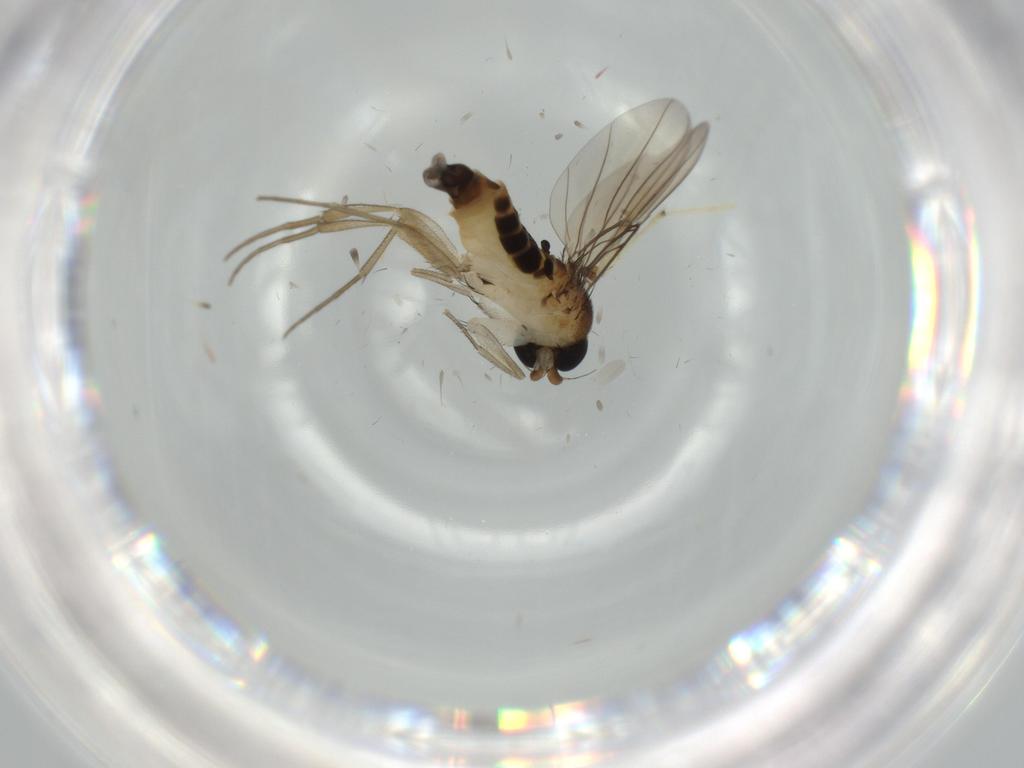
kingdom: Animalia
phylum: Arthropoda
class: Insecta
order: Diptera
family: Phoridae
